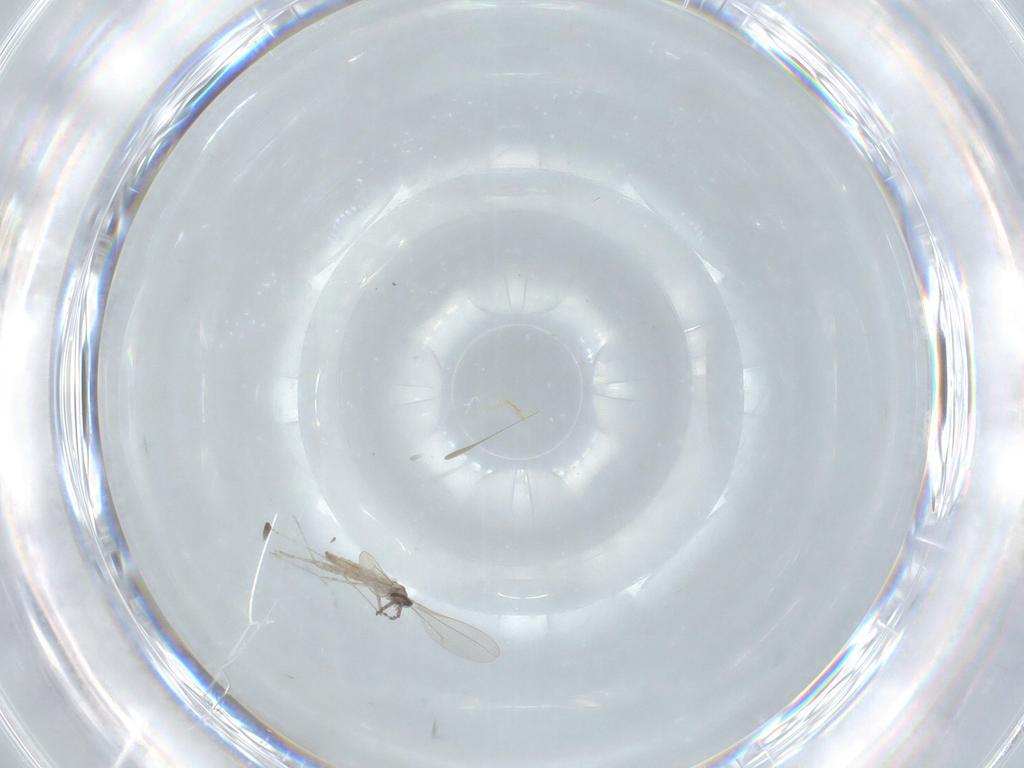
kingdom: Animalia
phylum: Arthropoda
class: Insecta
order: Diptera
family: Cecidomyiidae
